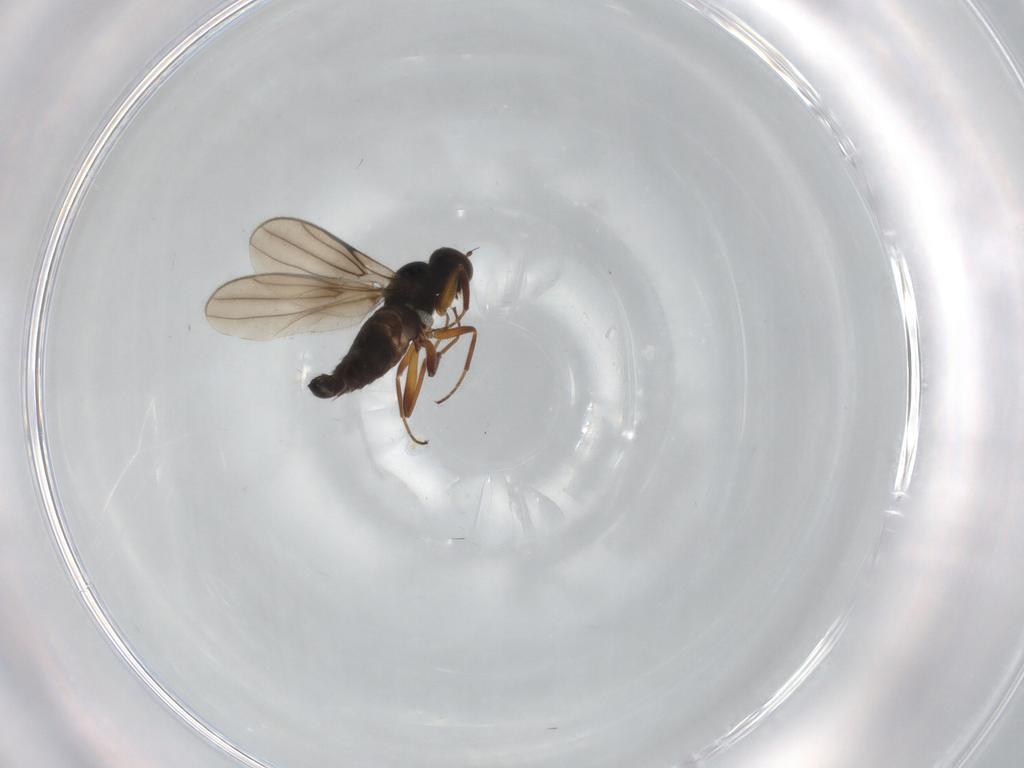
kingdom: Animalia
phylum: Arthropoda
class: Insecta
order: Diptera
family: Hybotidae
